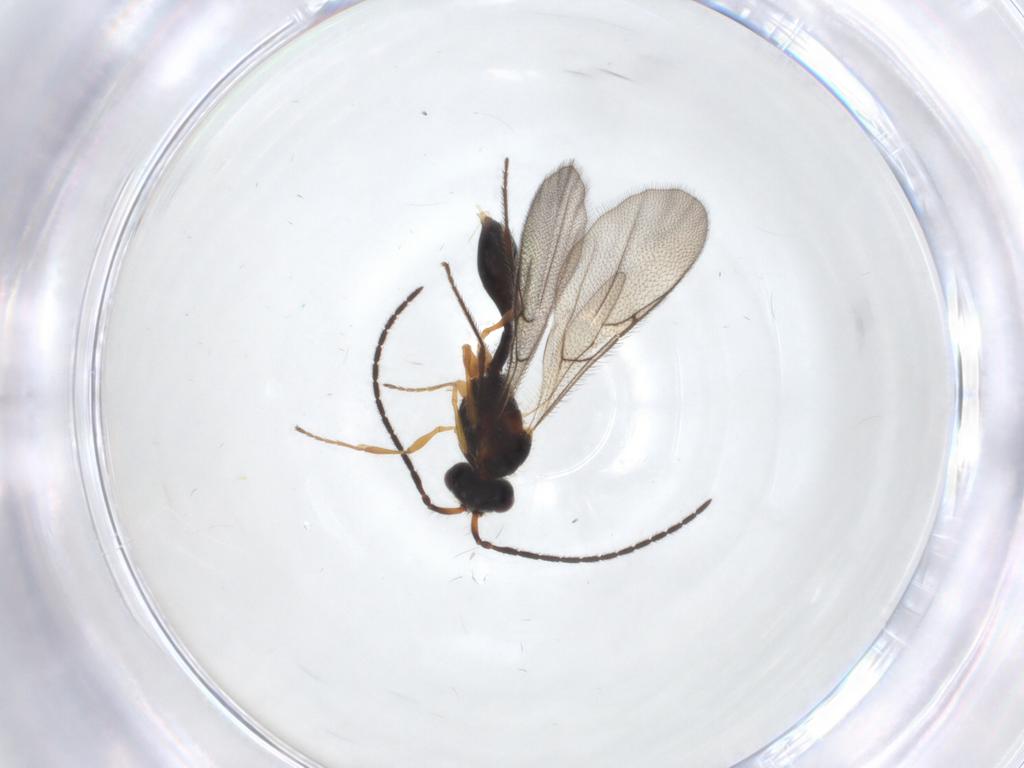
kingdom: Animalia
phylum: Arthropoda
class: Insecta
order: Hymenoptera
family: Diapriidae
